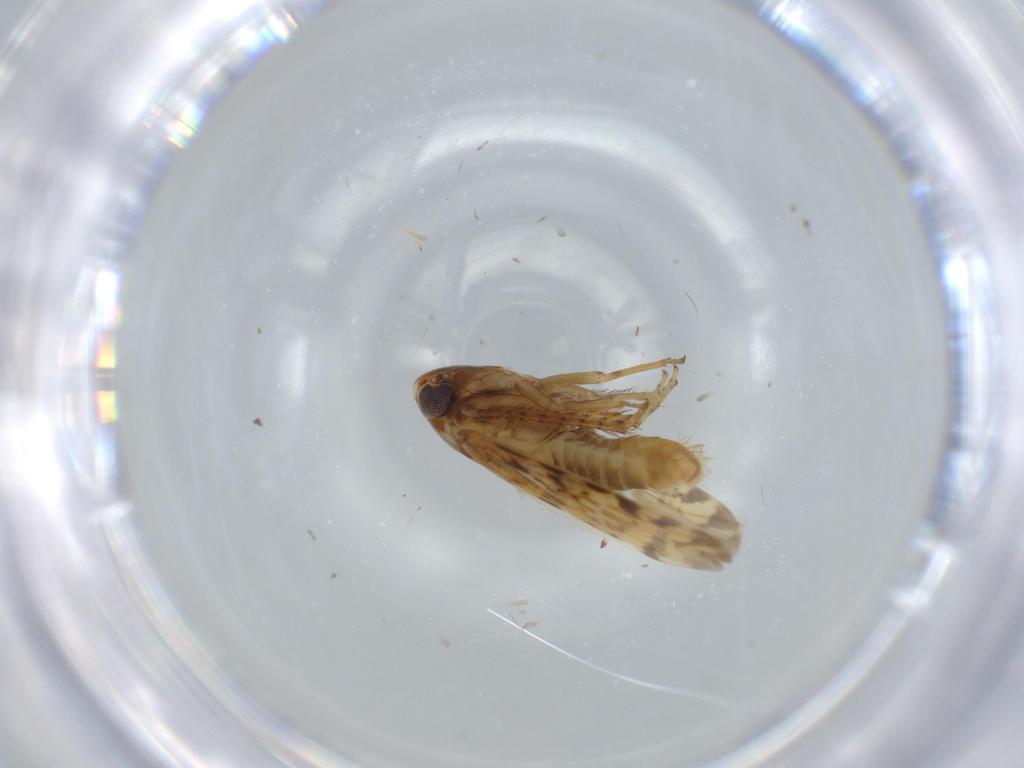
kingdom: Animalia
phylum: Arthropoda
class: Insecta
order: Hemiptera
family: Cicadellidae
